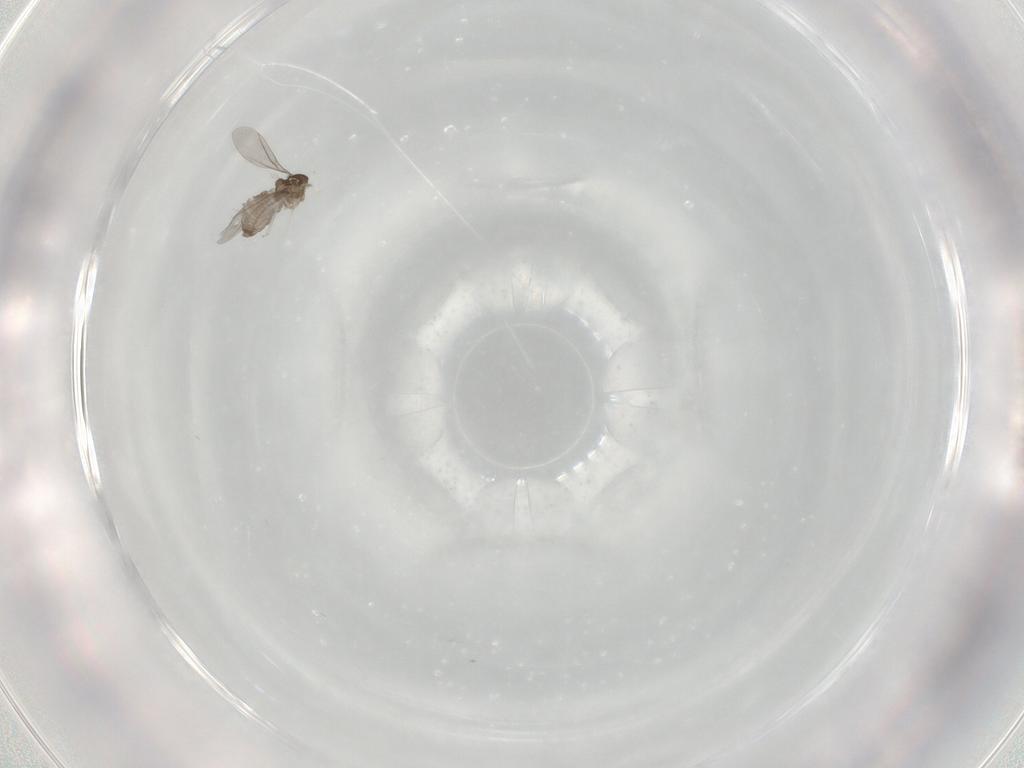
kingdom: Animalia
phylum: Arthropoda
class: Insecta
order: Diptera
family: Cecidomyiidae
